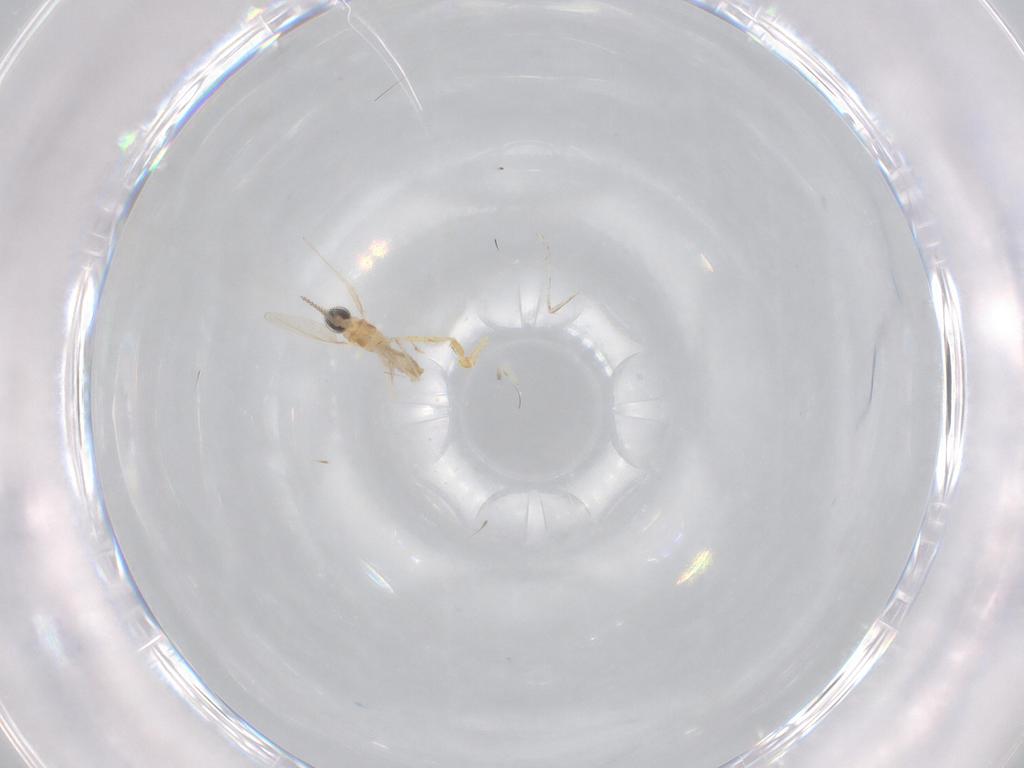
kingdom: Animalia
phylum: Arthropoda
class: Insecta
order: Diptera
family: Cecidomyiidae
